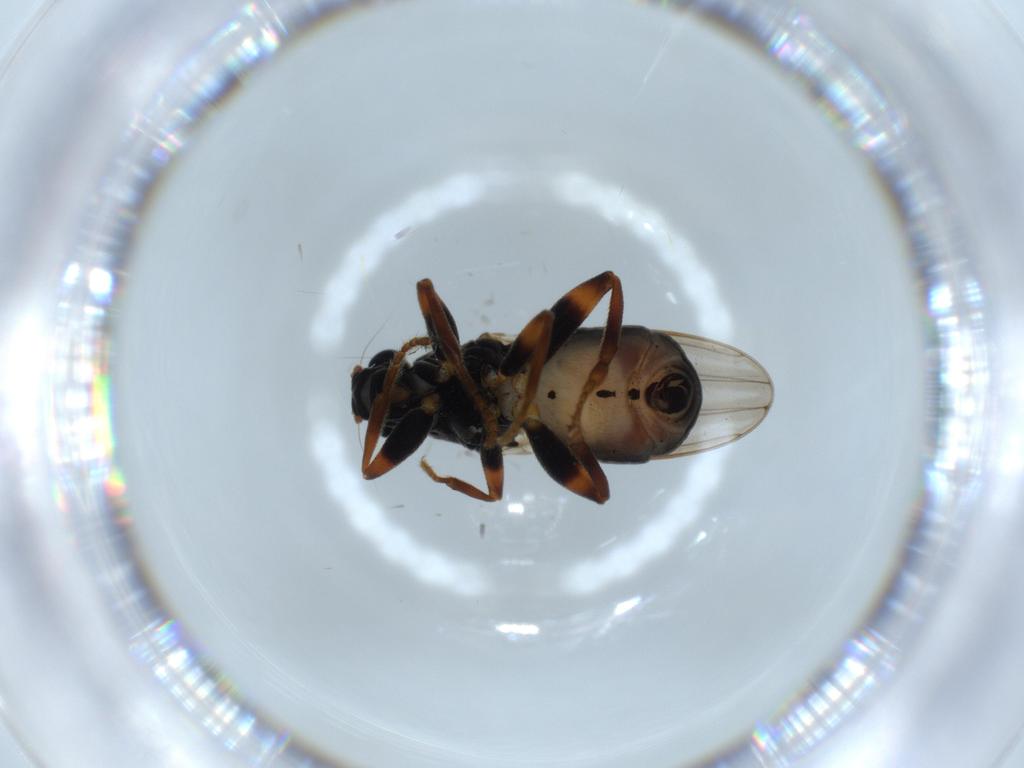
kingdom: Animalia
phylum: Arthropoda
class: Insecta
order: Diptera
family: Sphaeroceridae
